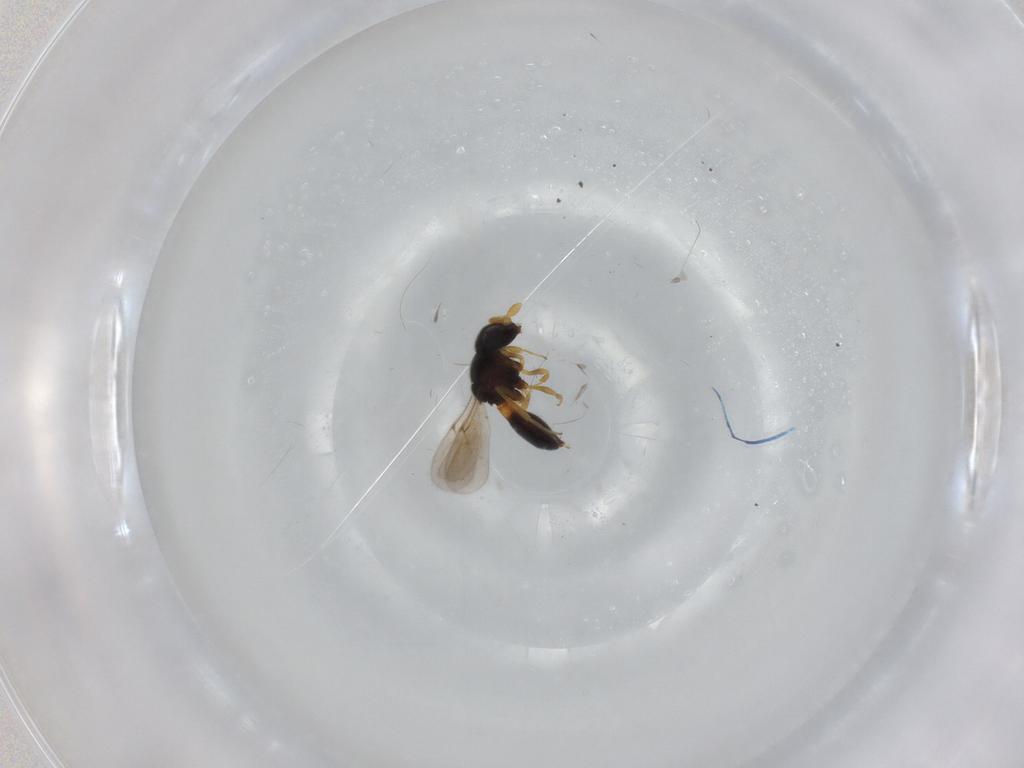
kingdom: Animalia
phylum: Arthropoda
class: Insecta
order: Hymenoptera
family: Scelionidae
